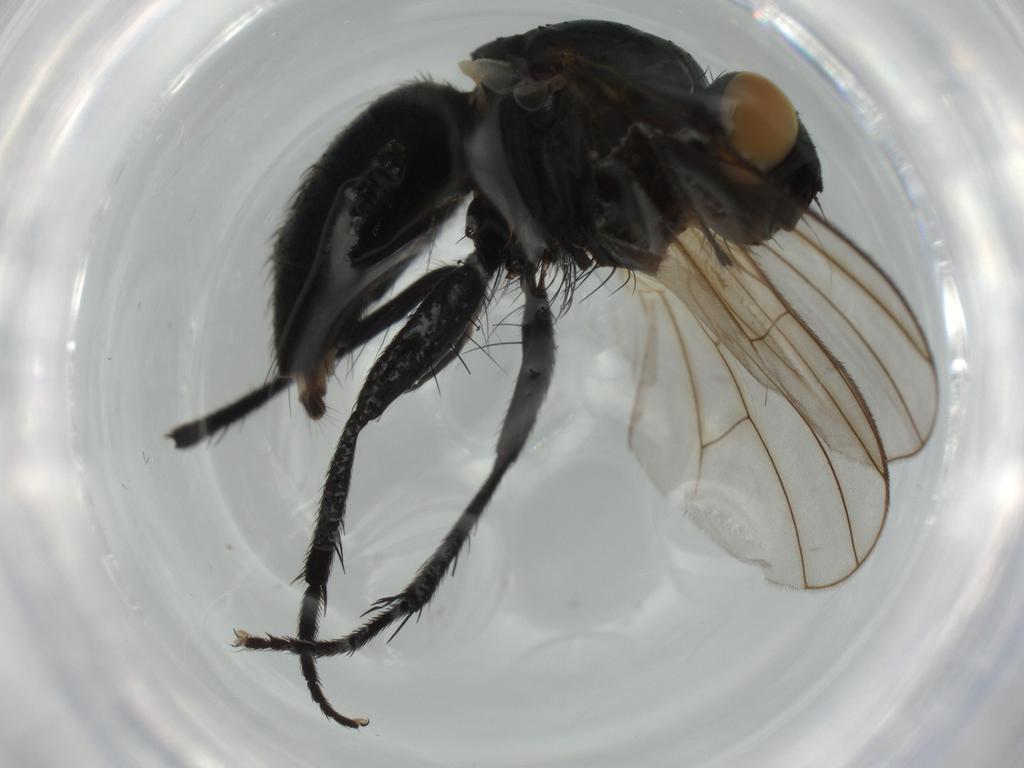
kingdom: Animalia
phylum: Arthropoda
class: Insecta
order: Diptera
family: Muscidae
